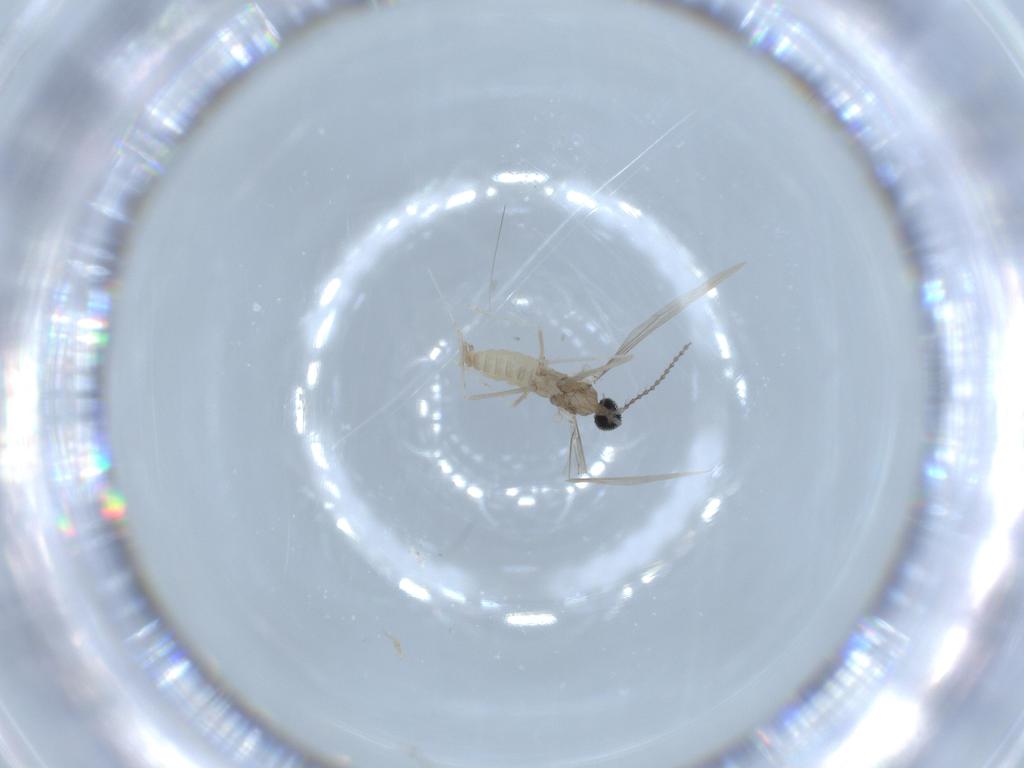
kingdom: Animalia
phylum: Arthropoda
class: Insecta
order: Diptera
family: Cecidomyiidae
